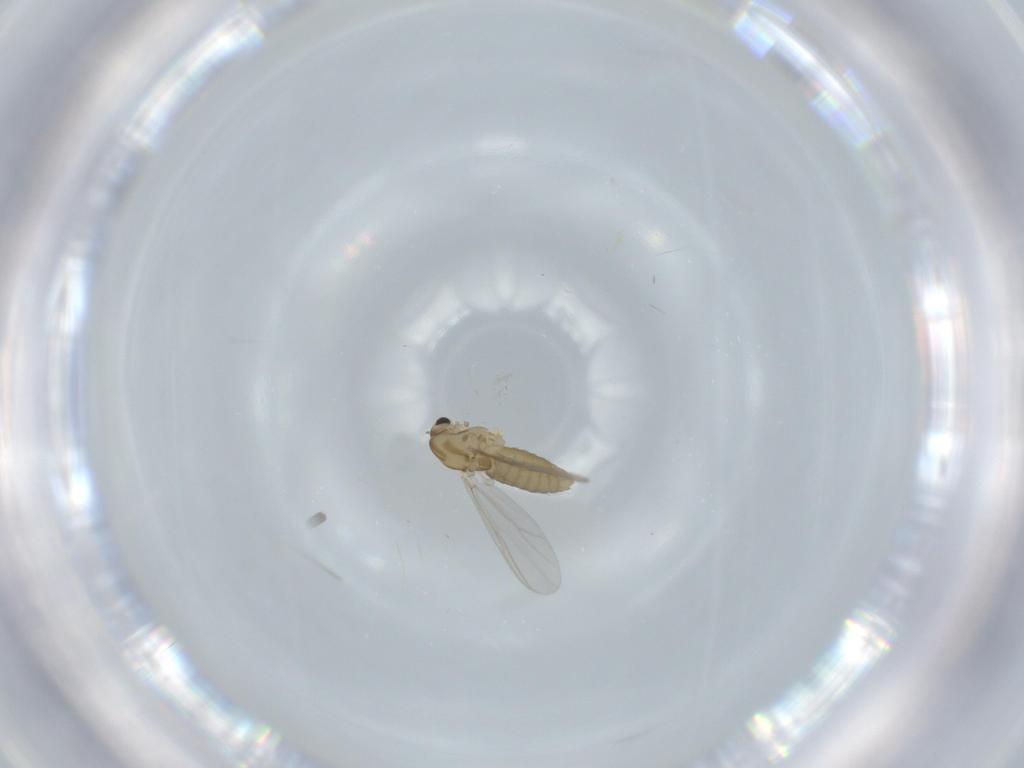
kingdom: Animalia
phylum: Arthropoda
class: Insecta
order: Diptera
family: Chironomidae
